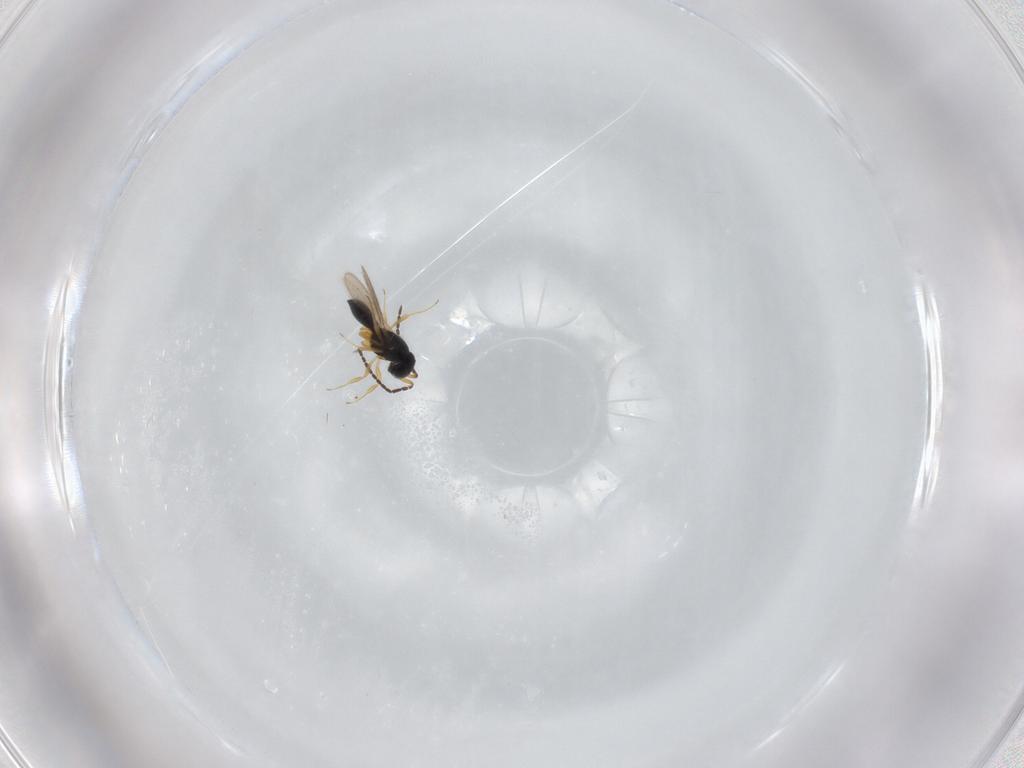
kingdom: Animalia
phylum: Arthropoda
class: Insecta
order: Hymenoptera
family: Scelionidae
